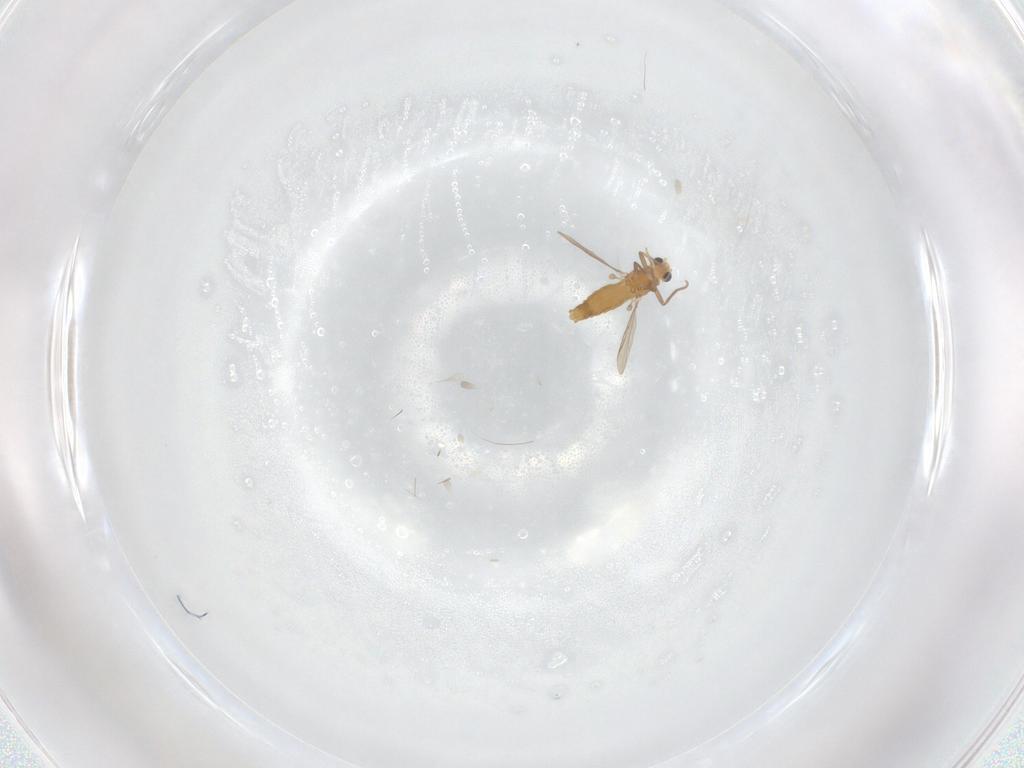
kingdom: Animalia
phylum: Arthropoda
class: Insecta
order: Diptera
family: Chironomidae
